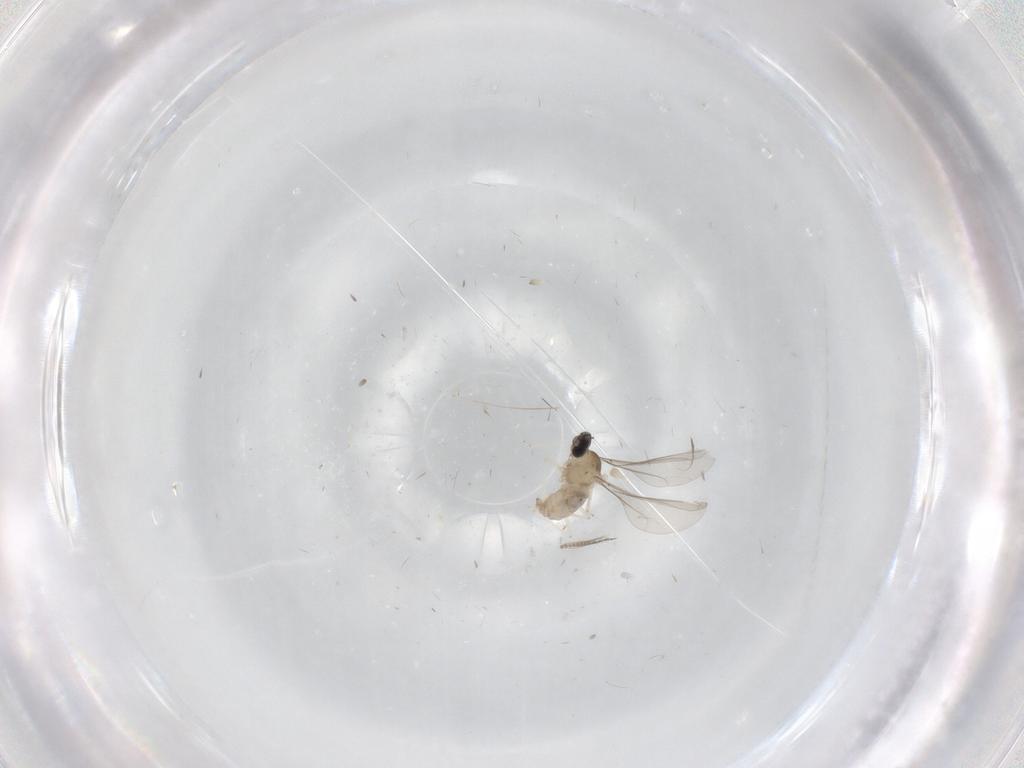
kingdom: Animalia
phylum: Arthropoda
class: Insecta
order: Diptera
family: Cecidomyiidae
